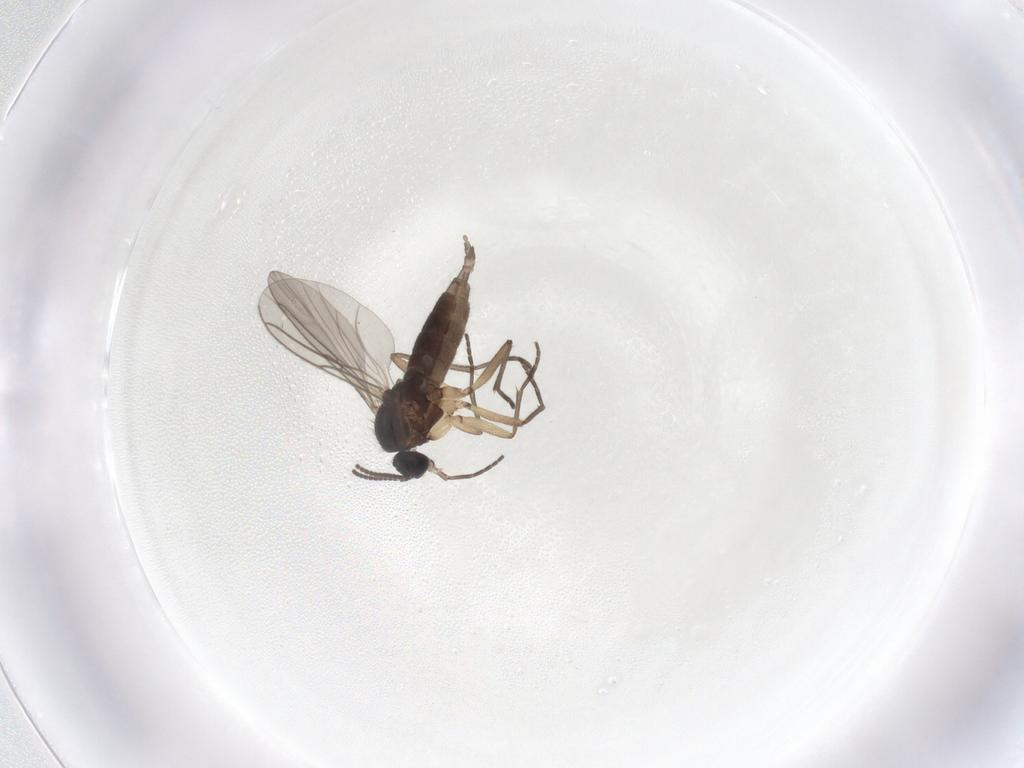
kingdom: Animalia
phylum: Arthropoda
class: Insecta
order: Diptera
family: Sciaridae
